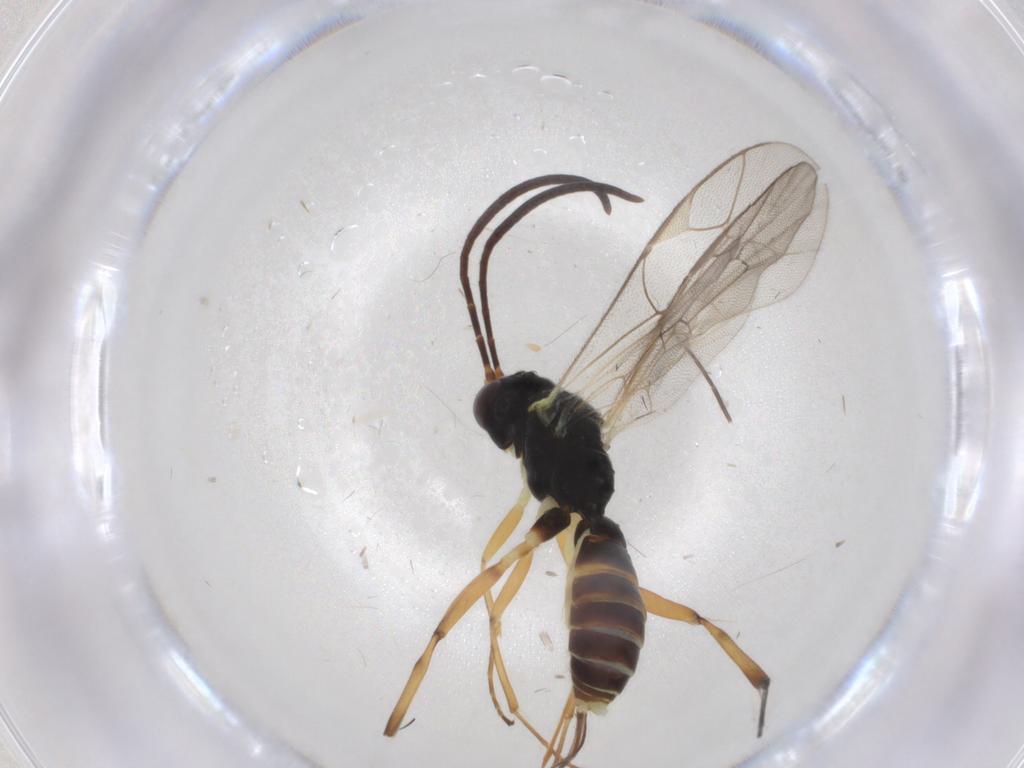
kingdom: Animalia
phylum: Arthropoda
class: Insecta
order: Hymenoptera
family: Ichneumonidae
